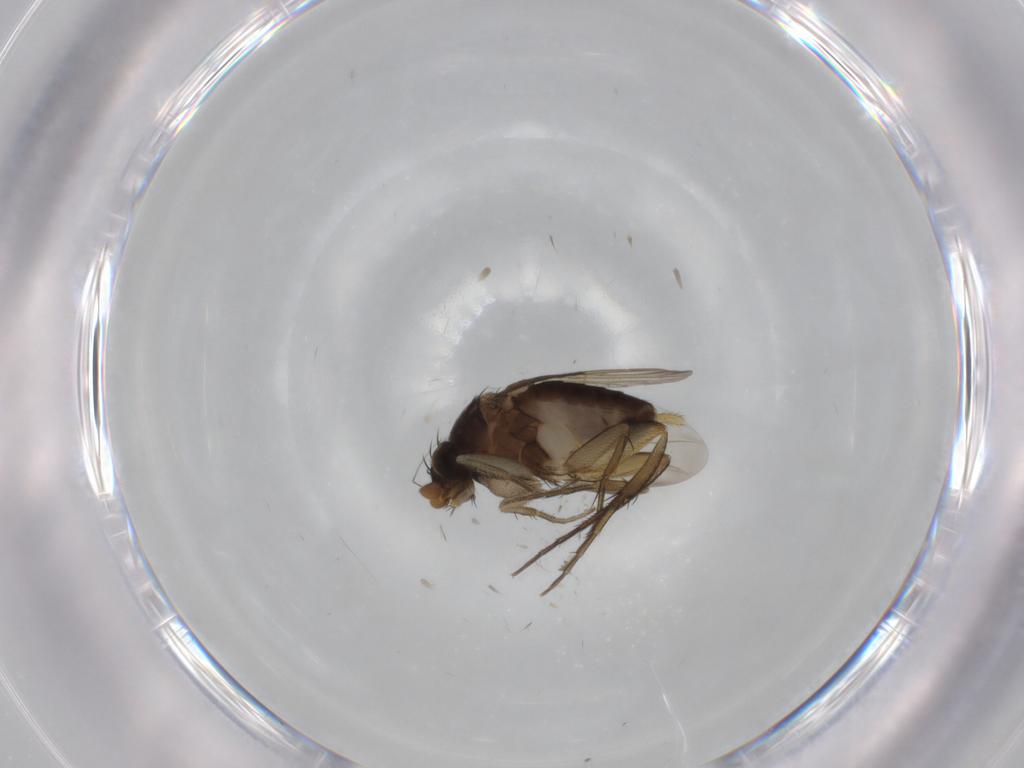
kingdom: Animalia
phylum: Arthropoda
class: Insecta
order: Diptera
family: Phoridae
